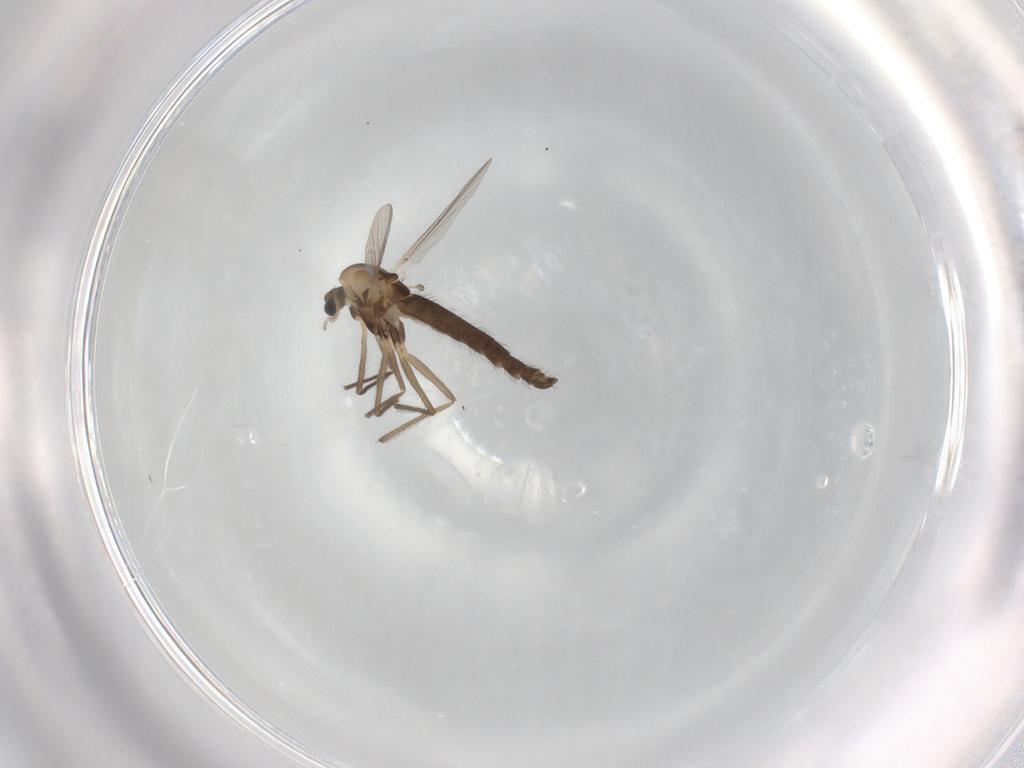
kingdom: Animalia
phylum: Arthropoda
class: Insecta
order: Diptera
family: Chironomidae
